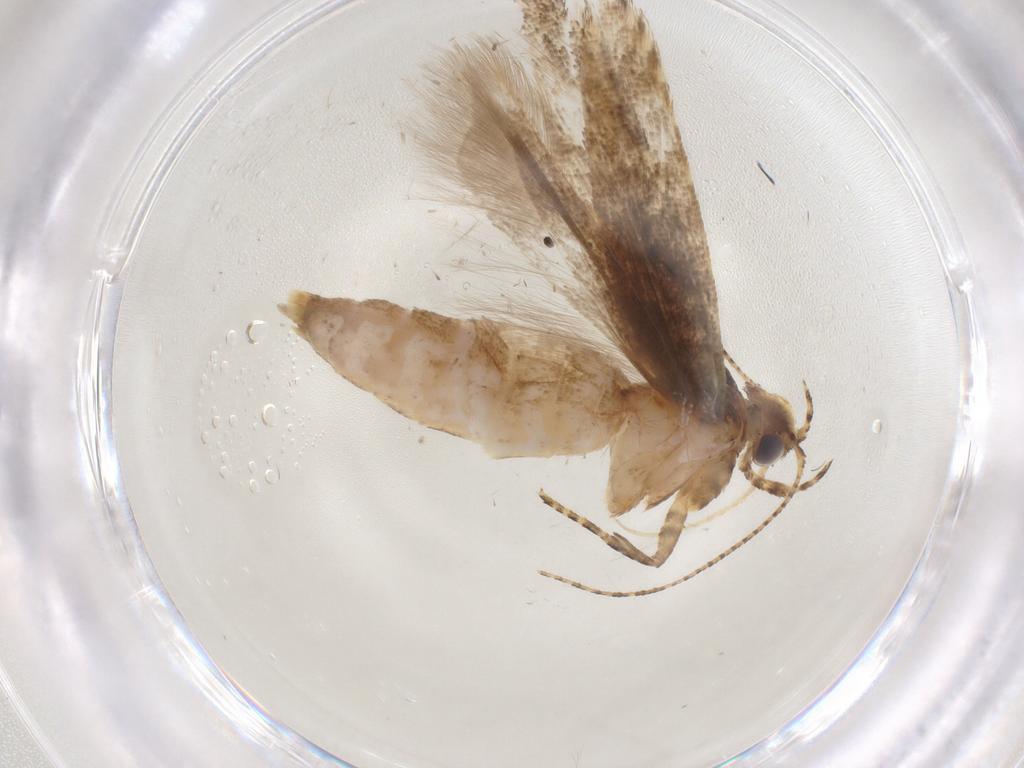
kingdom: Animalia
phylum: Arthropoda
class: Insecta
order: Lepidoptera
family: Gelechiidae
